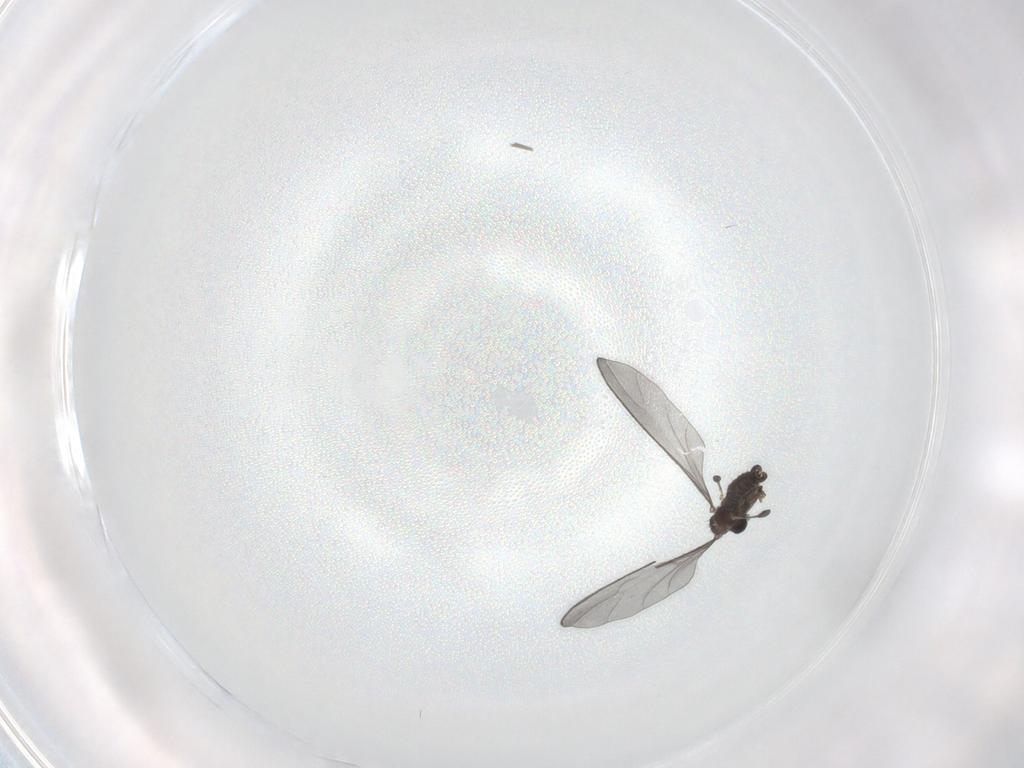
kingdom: Animalia
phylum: Arthropoda
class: Insecta
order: Diptera
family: Sciaridae
